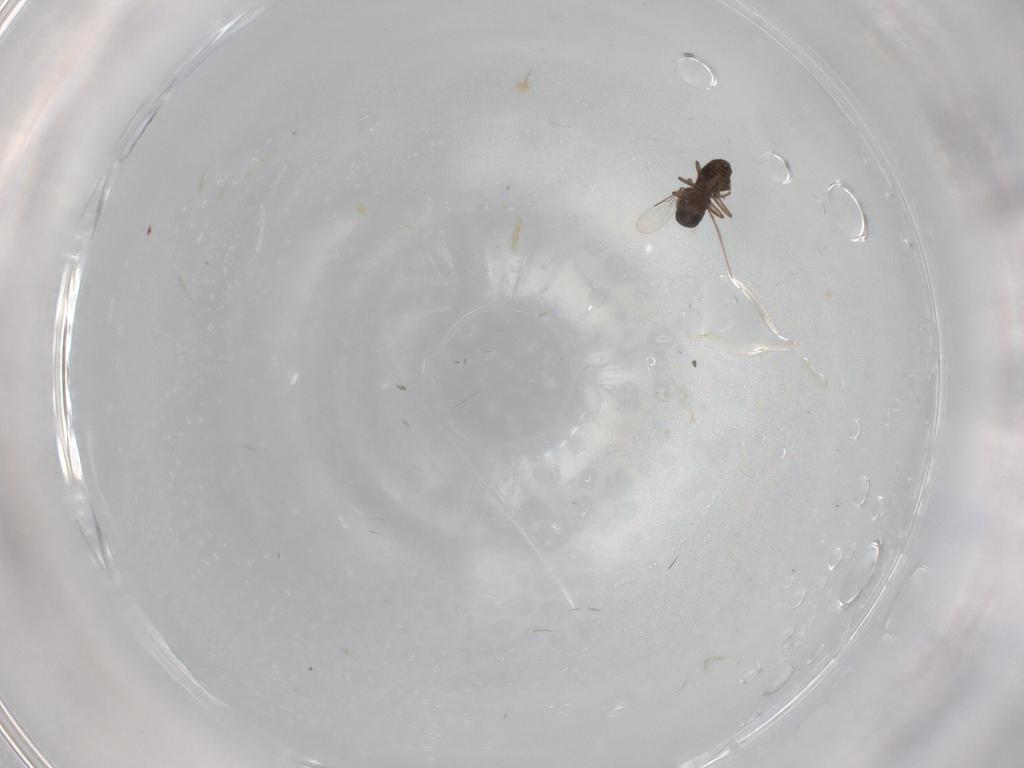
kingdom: Animalia
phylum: Arthropoda
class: Insecta
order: Diptera
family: Ceratopogonidae
